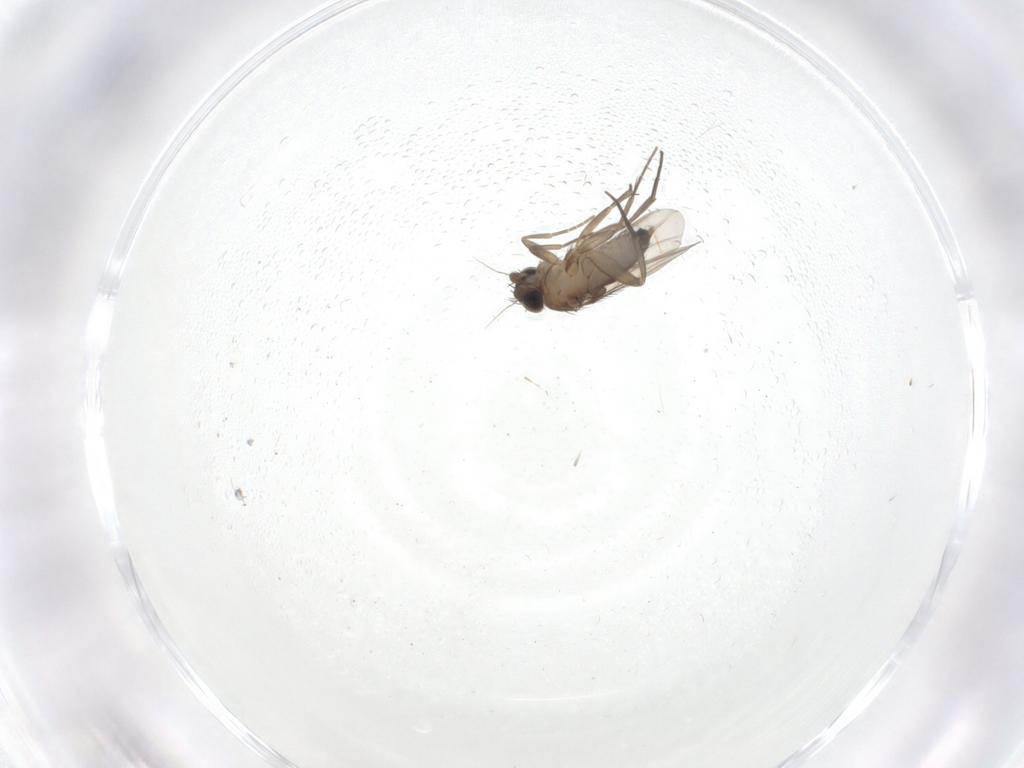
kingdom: Animalia
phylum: Arthropoda
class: Insecta
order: Diptera
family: Phoridae
